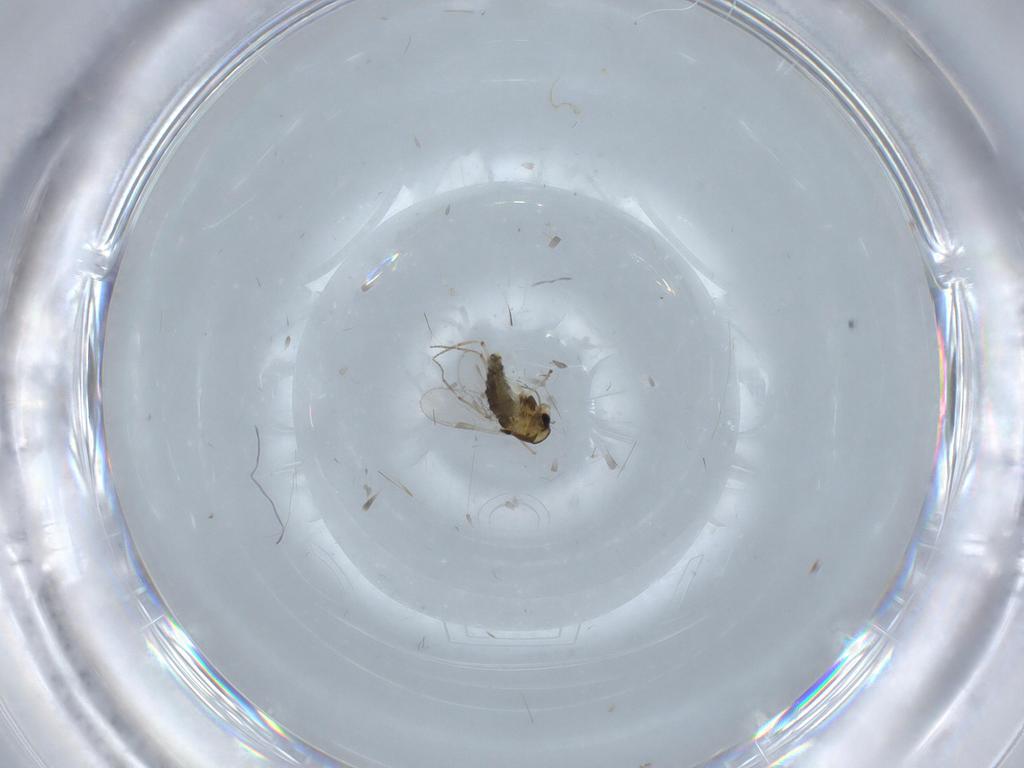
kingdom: Animalia
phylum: Arthropoda
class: Insecta
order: Diptera
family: Chironomidae
